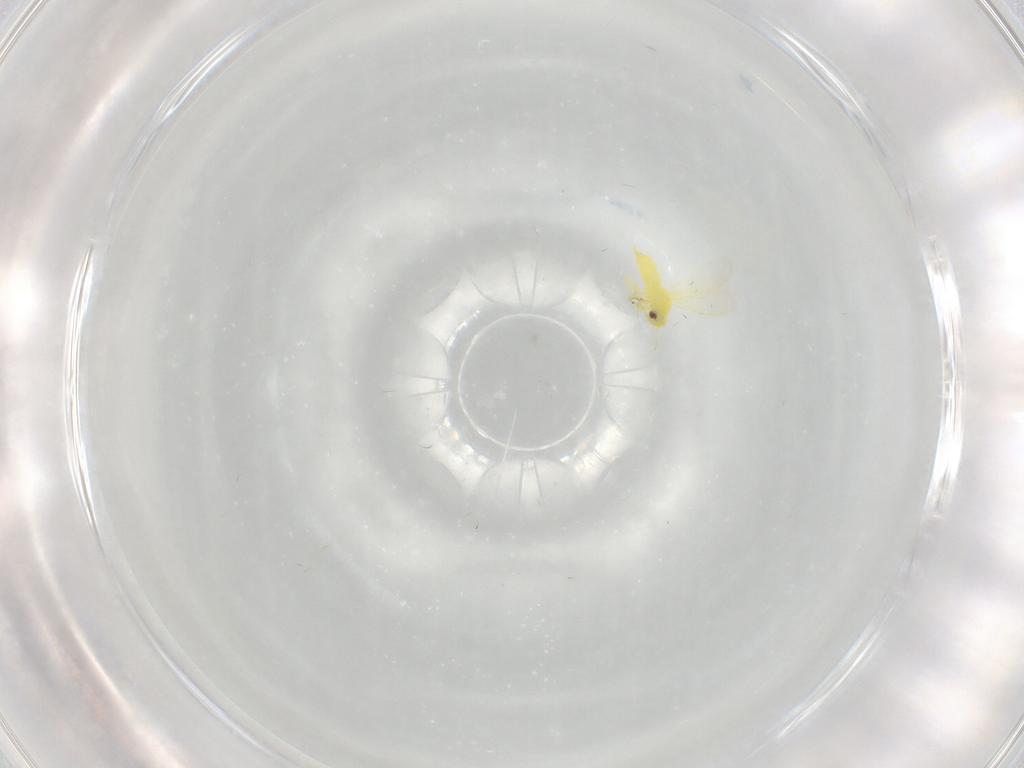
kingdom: Animalia
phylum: Arthropoda
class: Insecta
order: Hemiptera
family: Aleyrodidae
